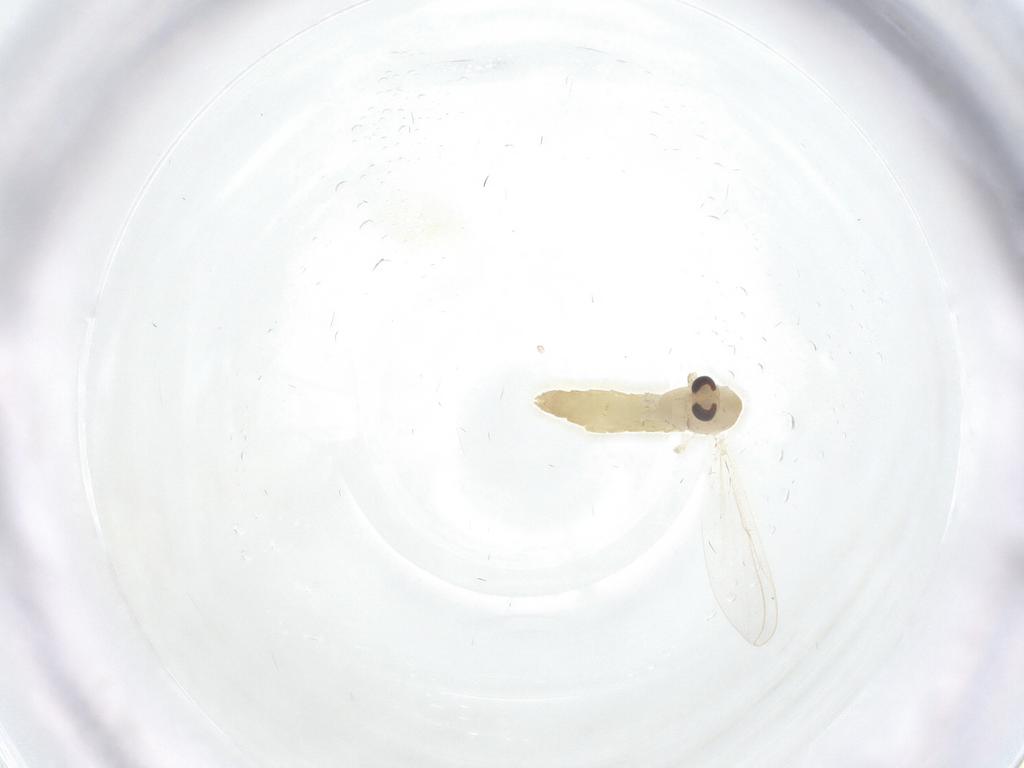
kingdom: Animalia
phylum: Arthropoda
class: Insecta
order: Diptera
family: Chironomidae
